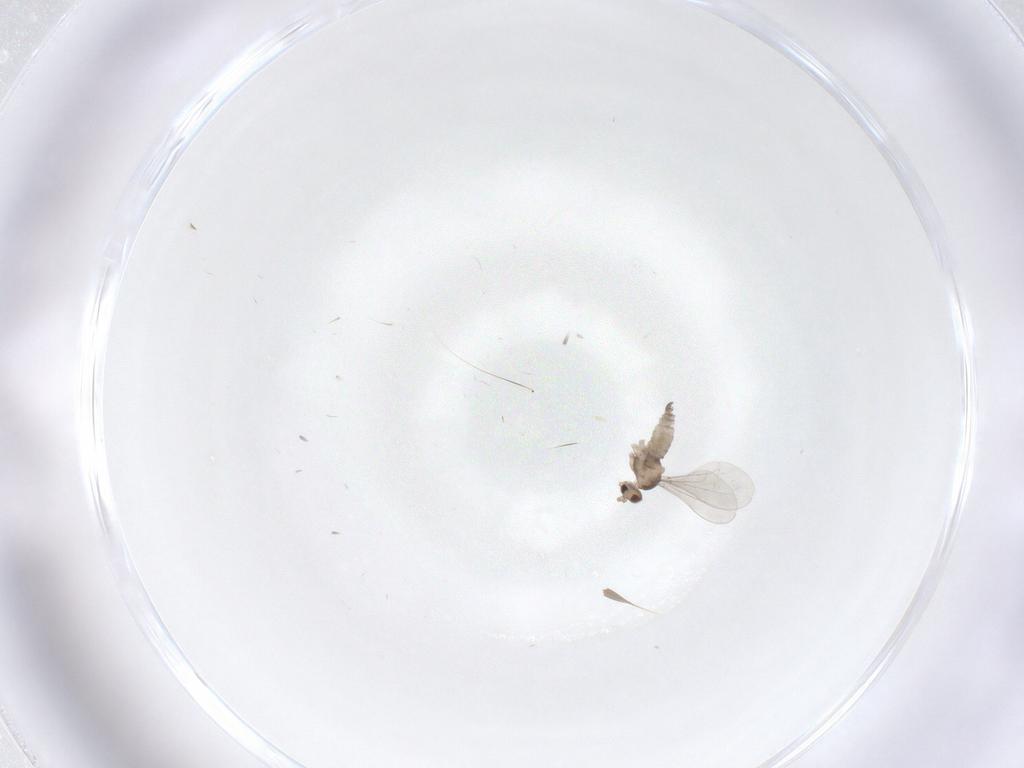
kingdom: Animalia
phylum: Arthropoda
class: Insecta
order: Diptera
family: Cecidomyiidae
